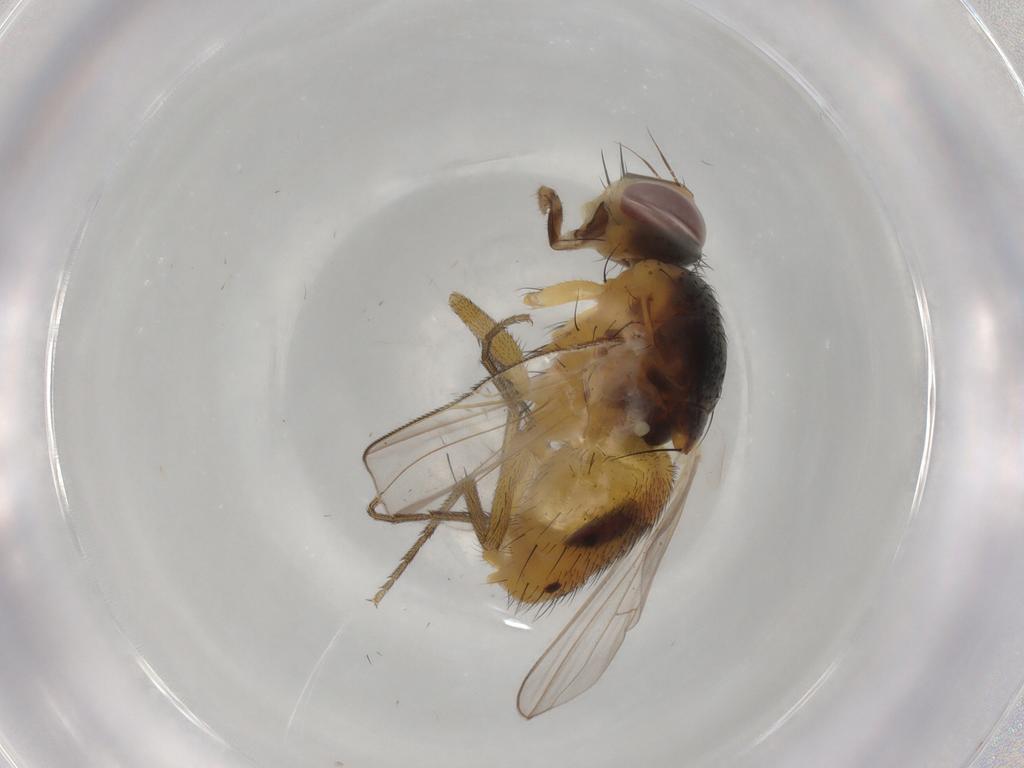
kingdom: Animalia
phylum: Arthropoda
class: Insecta
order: Diptera
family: Muscidae
